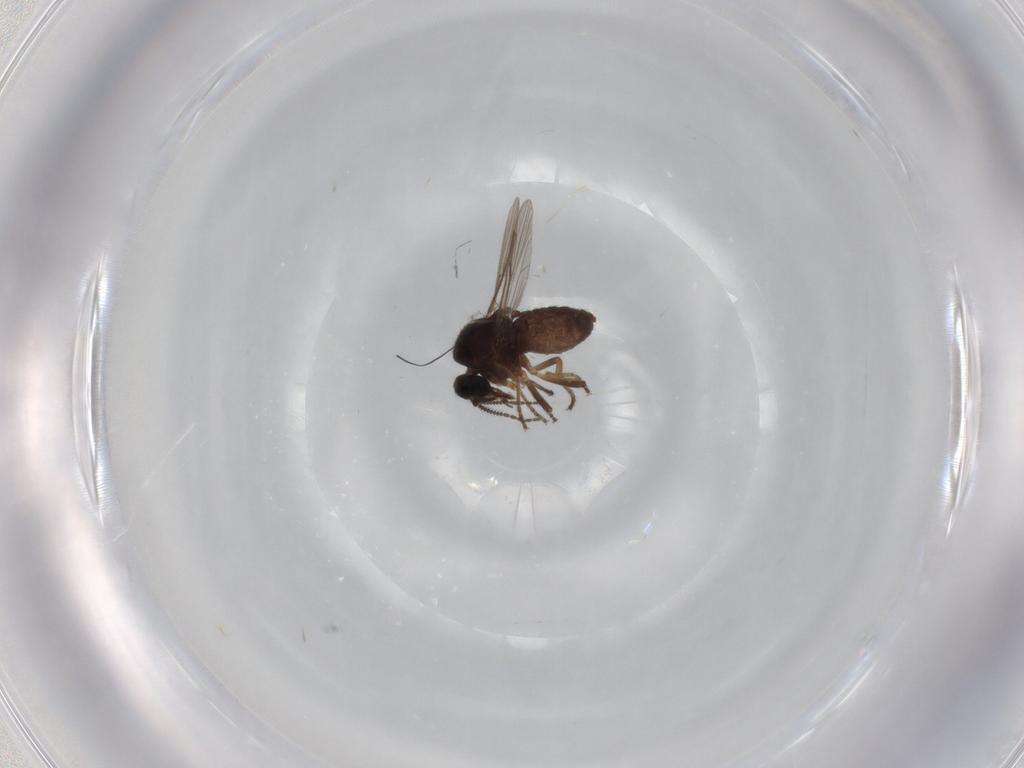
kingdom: Animalia
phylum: Arthropoda
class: Insecta
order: Diptera
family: Ceratopogonidae
